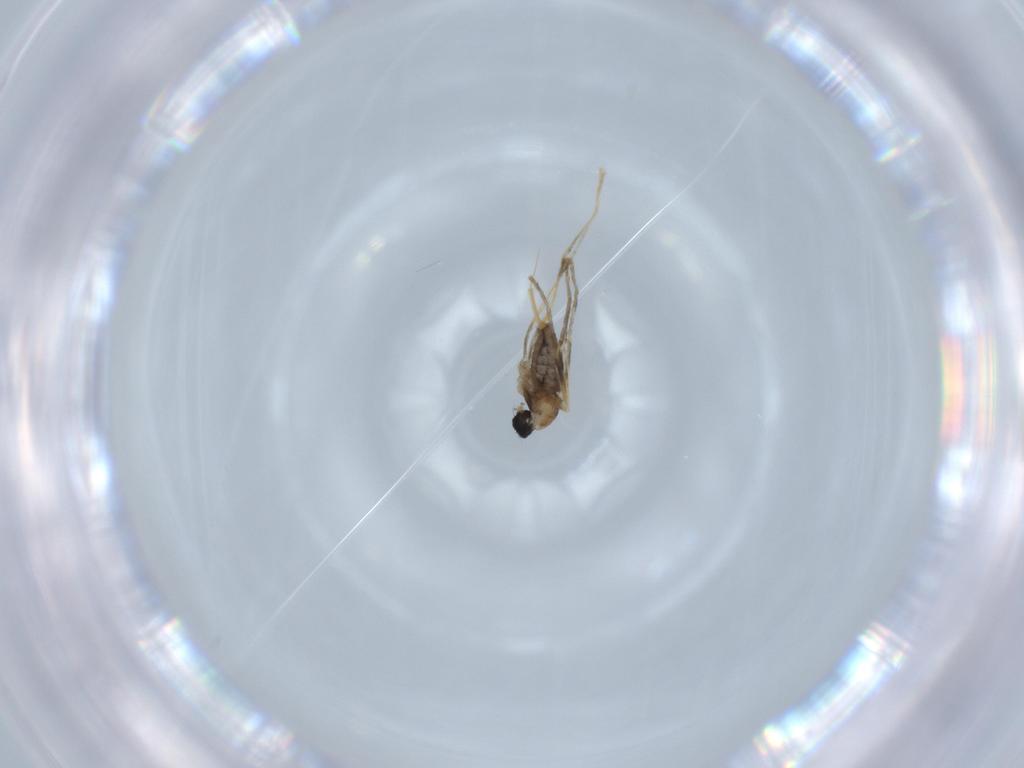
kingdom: Animalia
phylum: Arthropoda
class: Insecta
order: Diptera
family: Cecidomyiidae
